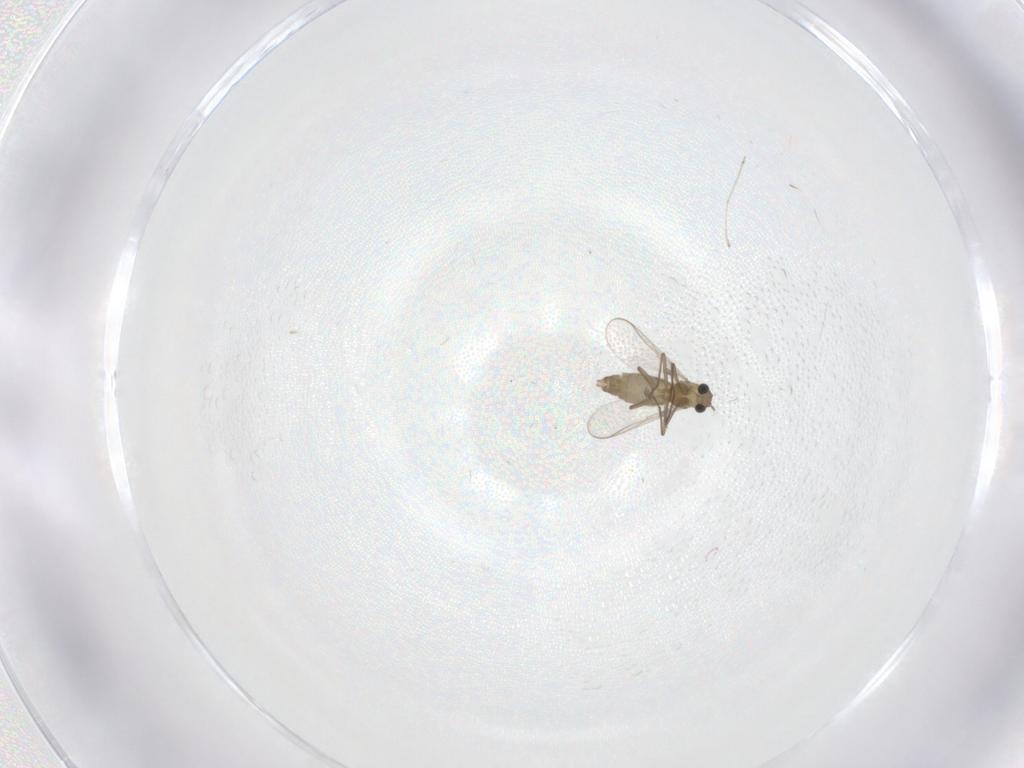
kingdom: Animalia
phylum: Arthropoda
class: Insecta
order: Diptera
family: Chironomidae
